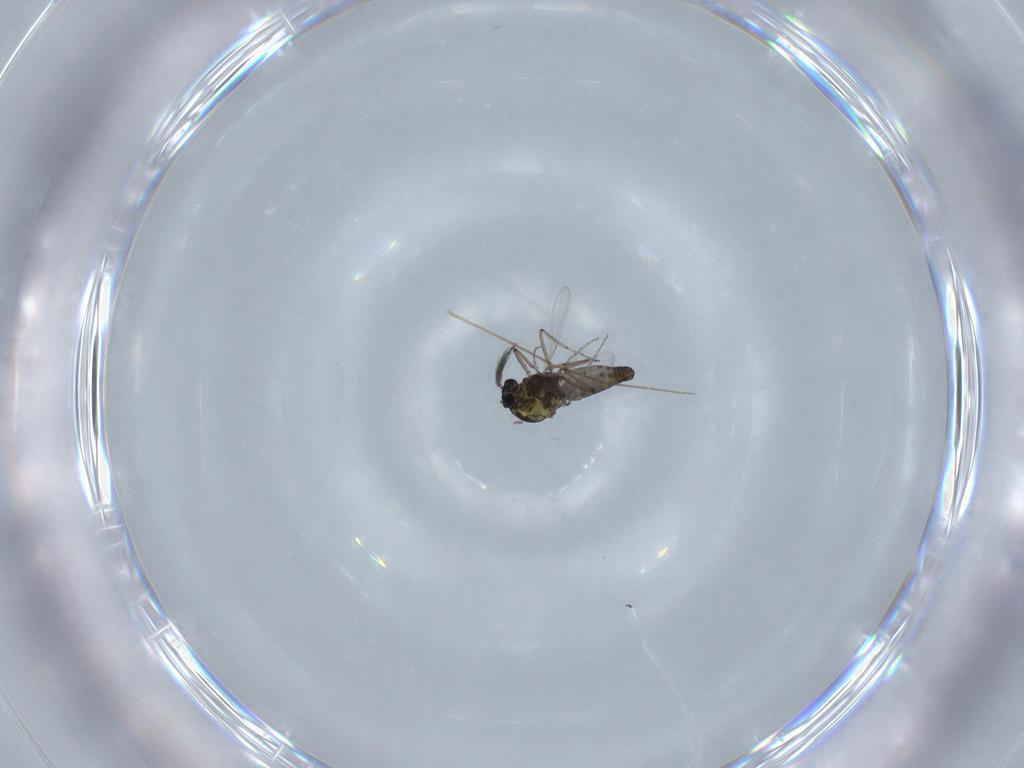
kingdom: Animalia
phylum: Arthropoda
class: Insecta
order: Diptera
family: Ceratopogonidae
